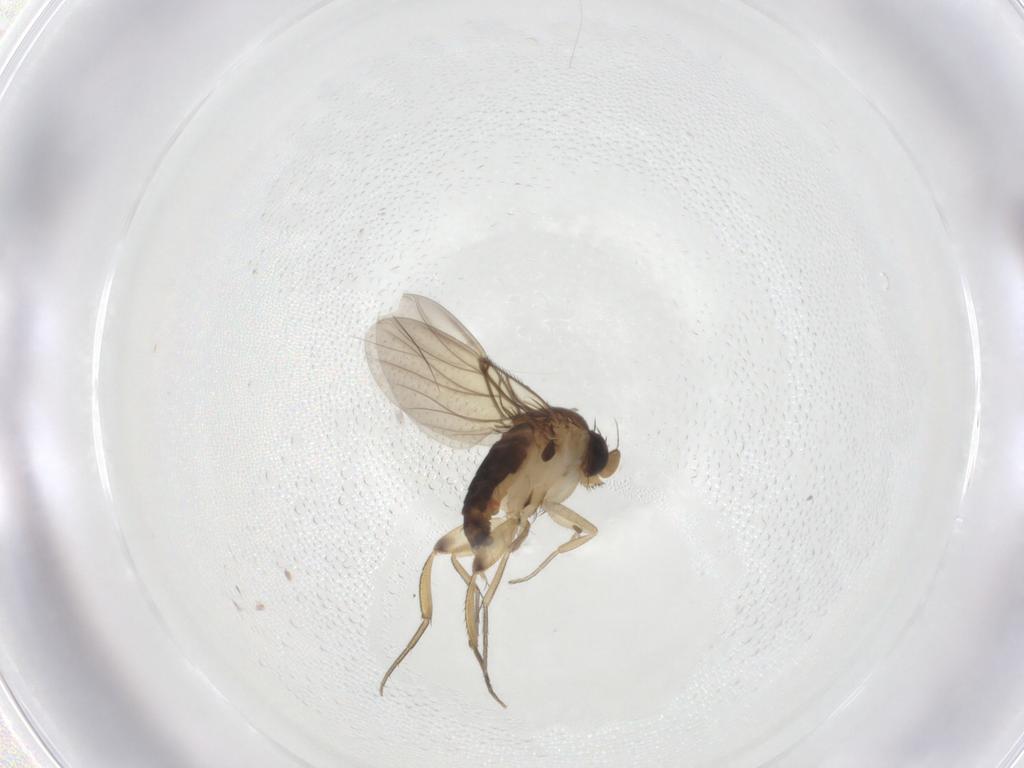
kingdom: Animalia
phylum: Arthropoda
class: Insecta
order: Diptera
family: Phoridae
